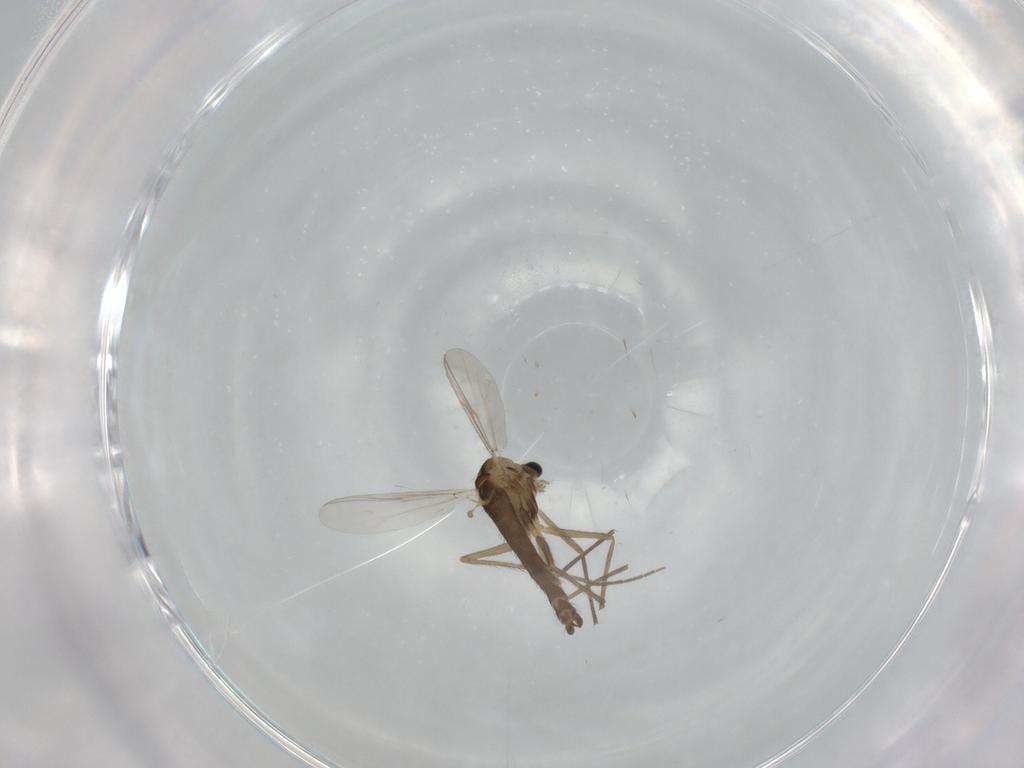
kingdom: Animalia
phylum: Arthropoda
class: Insecta
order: Diptera
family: Chironomidae
